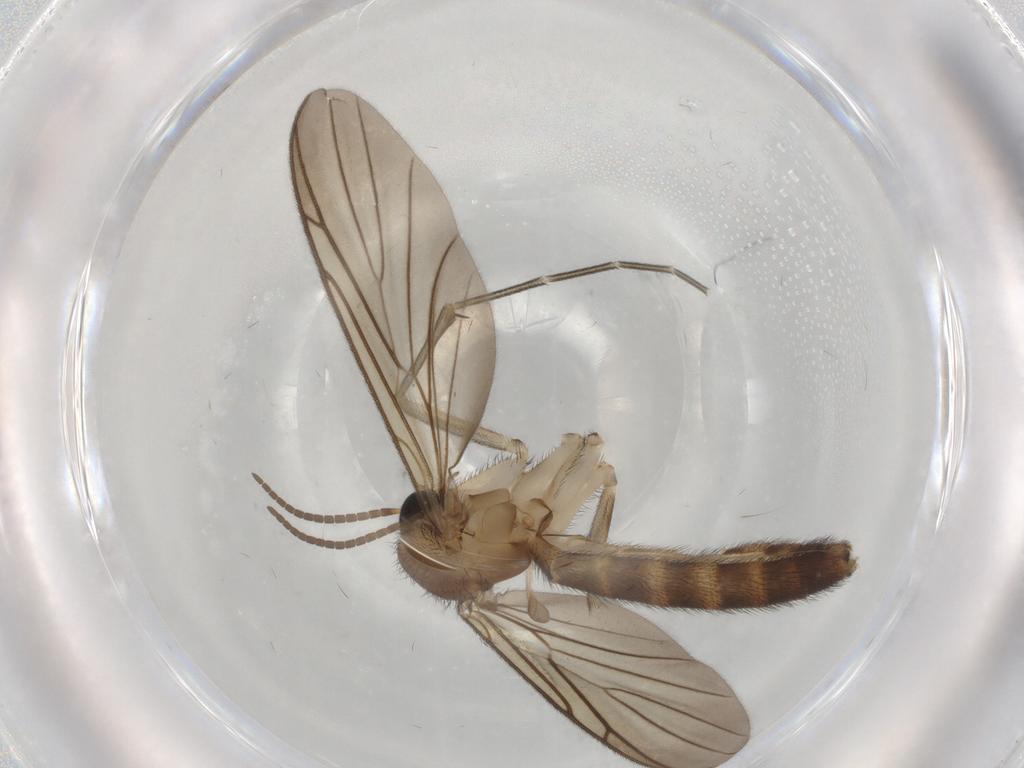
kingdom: Animalia
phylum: Arthropoda
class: Insecta
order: Diptera
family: Ceratopogonidae
